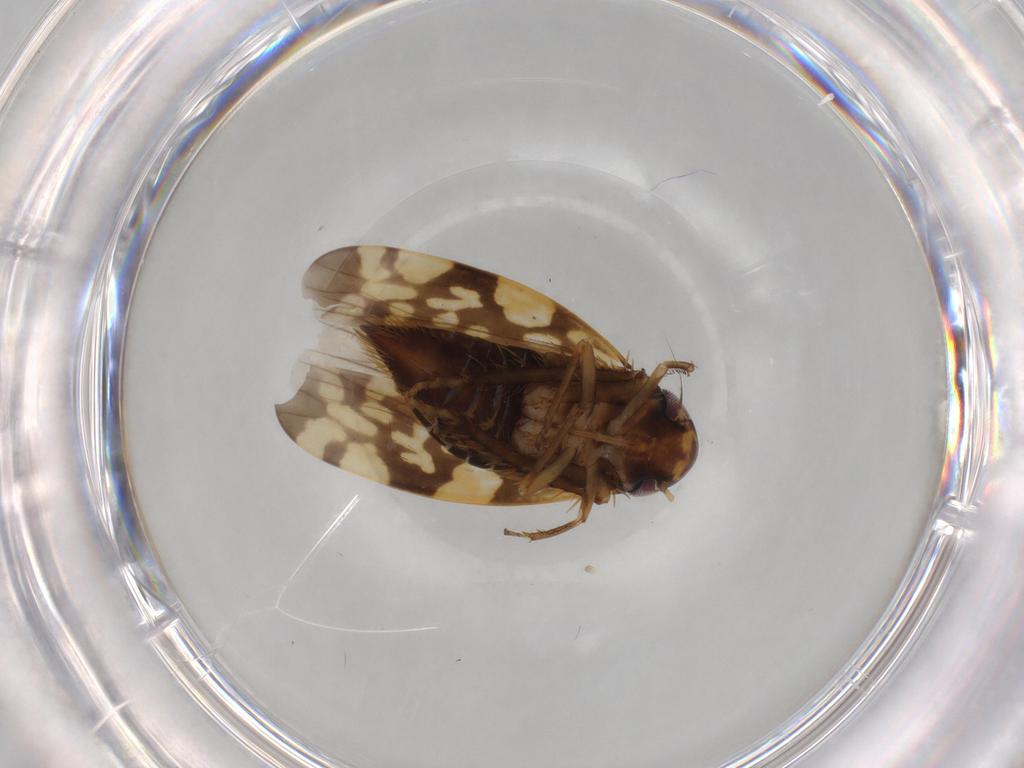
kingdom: Animalia
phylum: Arthropoda
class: Insecta
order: Hemiptera
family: Cicadellidae
